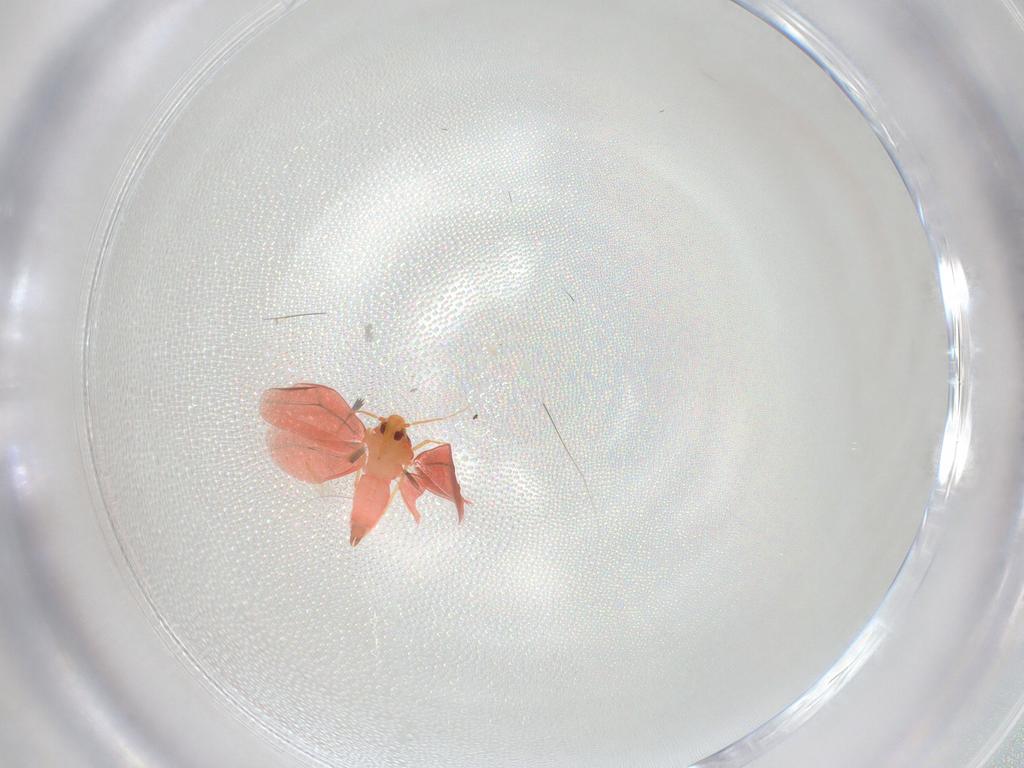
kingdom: Animalia
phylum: Arthropoda
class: Insecta
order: Hemiptera
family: Aleyrodidae
